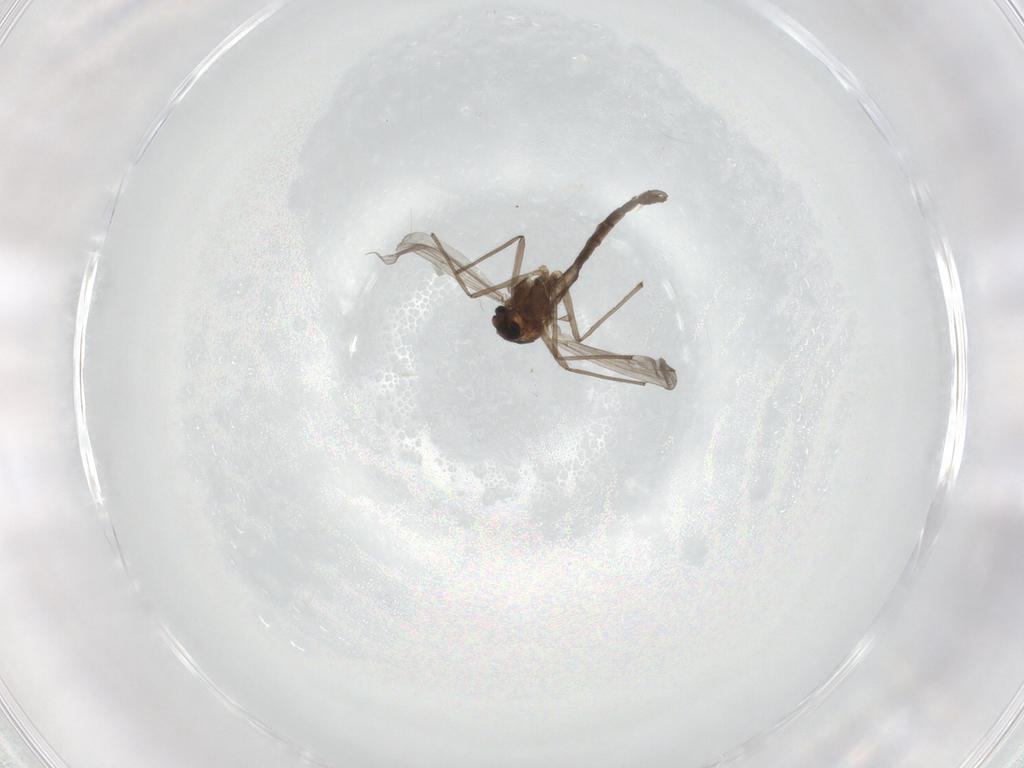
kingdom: Animalia
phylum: Arthropoda
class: Insecta
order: Diptera
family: Chironomidae
